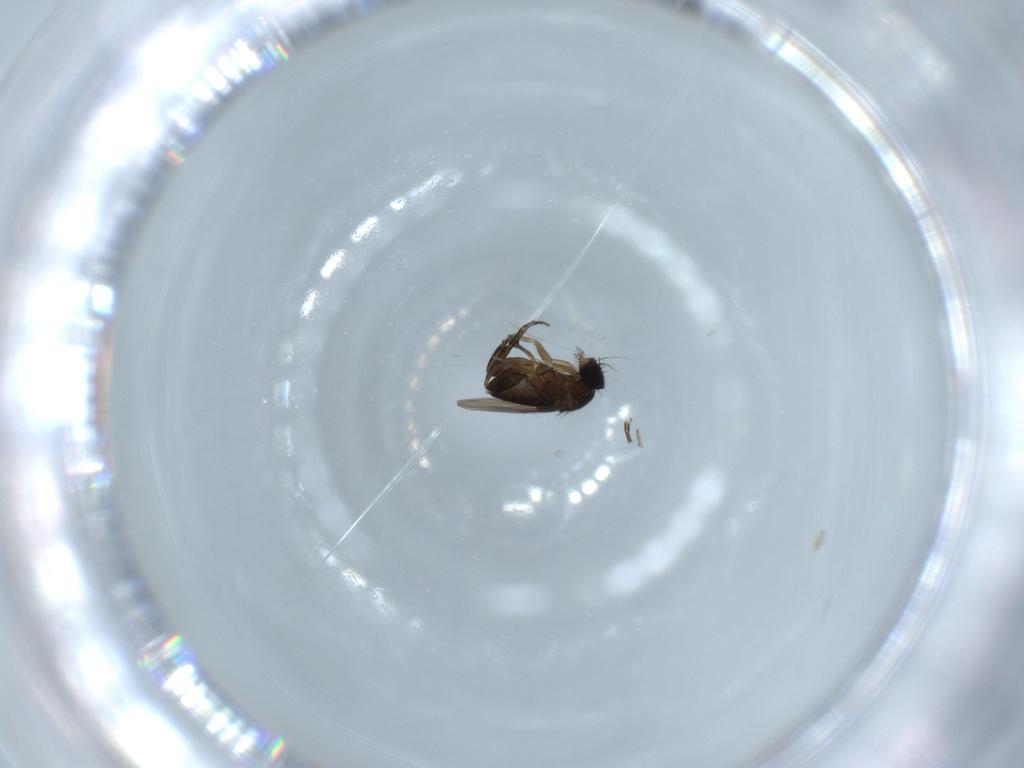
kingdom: Animalia
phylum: Arthropoda
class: Insecta
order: Diptera
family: Phoridae
